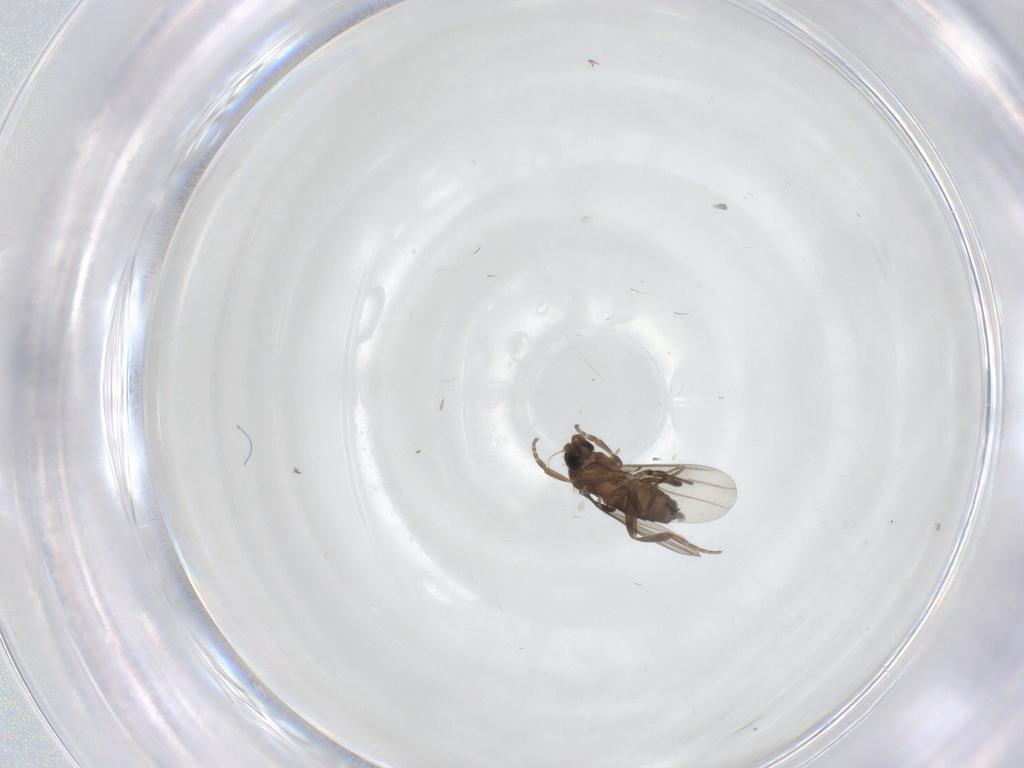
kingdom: Animalia
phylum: Arthropoda
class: Insecta
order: Diptera
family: Phoridae
